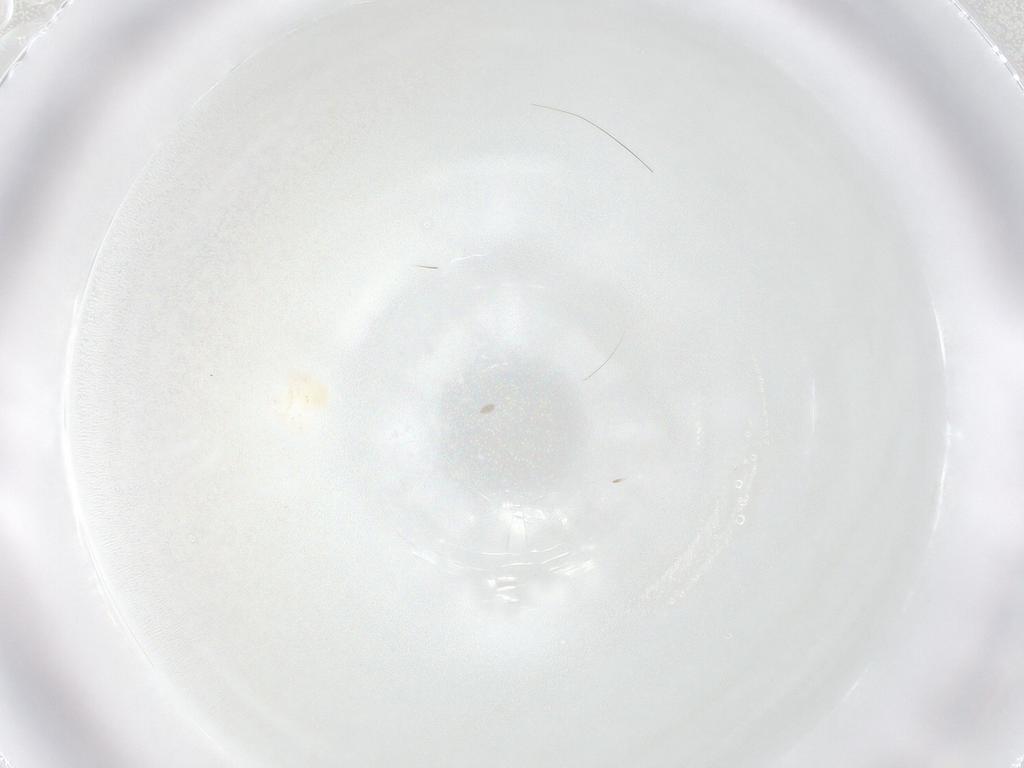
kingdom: Animalia
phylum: Arthropoda
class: Collembola
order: Entomobryomorpha
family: Entomobryidae
